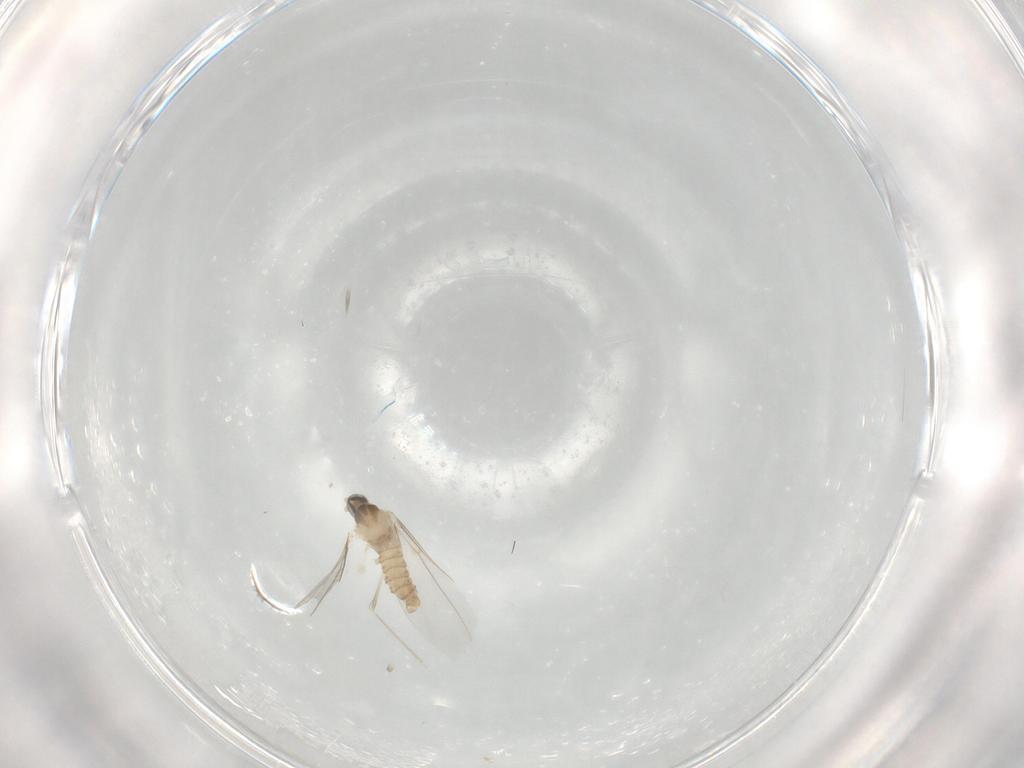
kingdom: Animalia
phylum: Arthropoda
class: Insecta
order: Diptera
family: Cecidomyiidae
